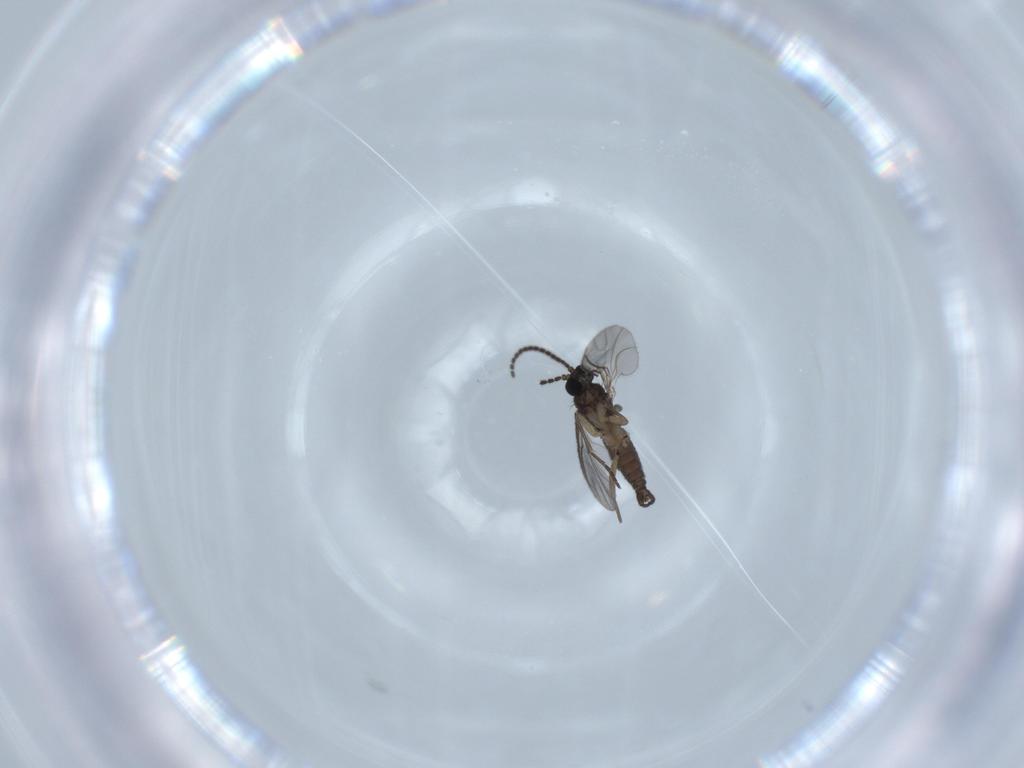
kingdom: Animalia
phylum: Arthropoda
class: Insecta
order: Diptera
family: Sciaridae
